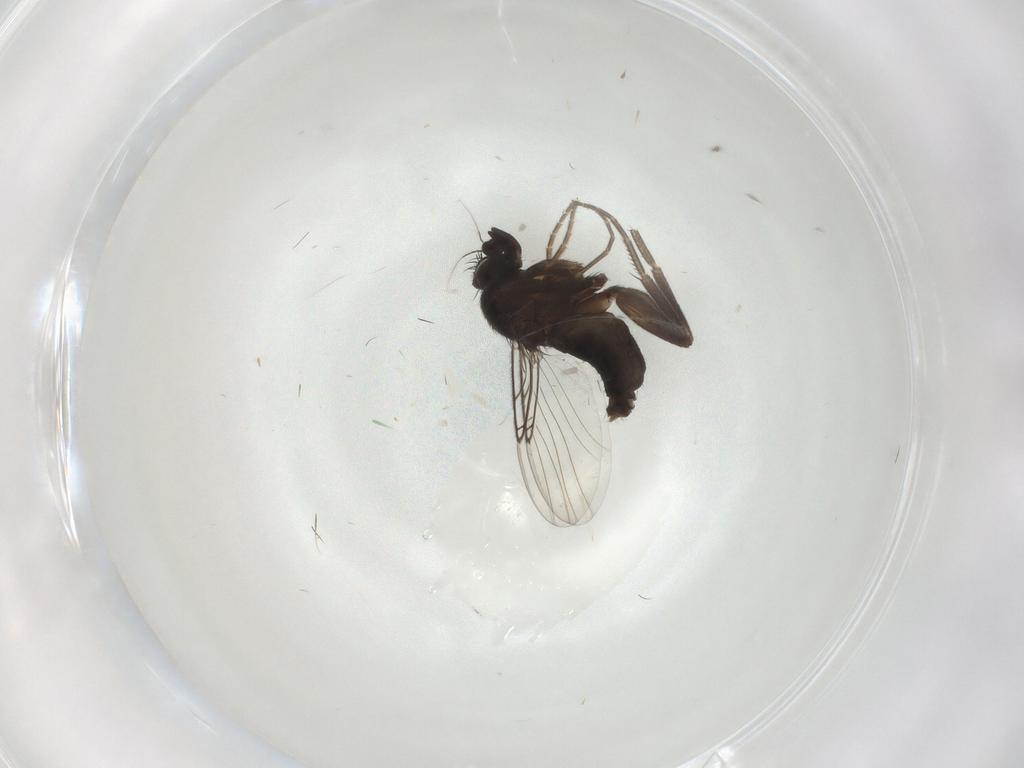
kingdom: Animalia
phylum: Arthropoda
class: Insecta
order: Diptera
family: Phoridae
